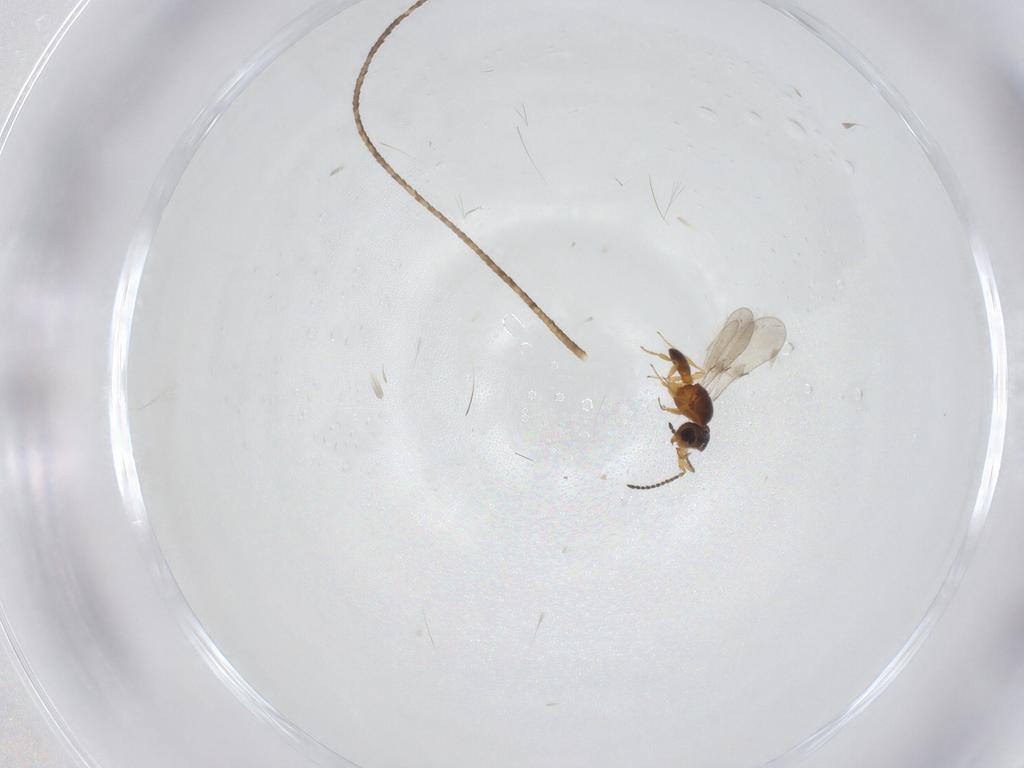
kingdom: Animalia
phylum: Arthropoda
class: Insecta
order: Hymenoptera
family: Scelionidae
